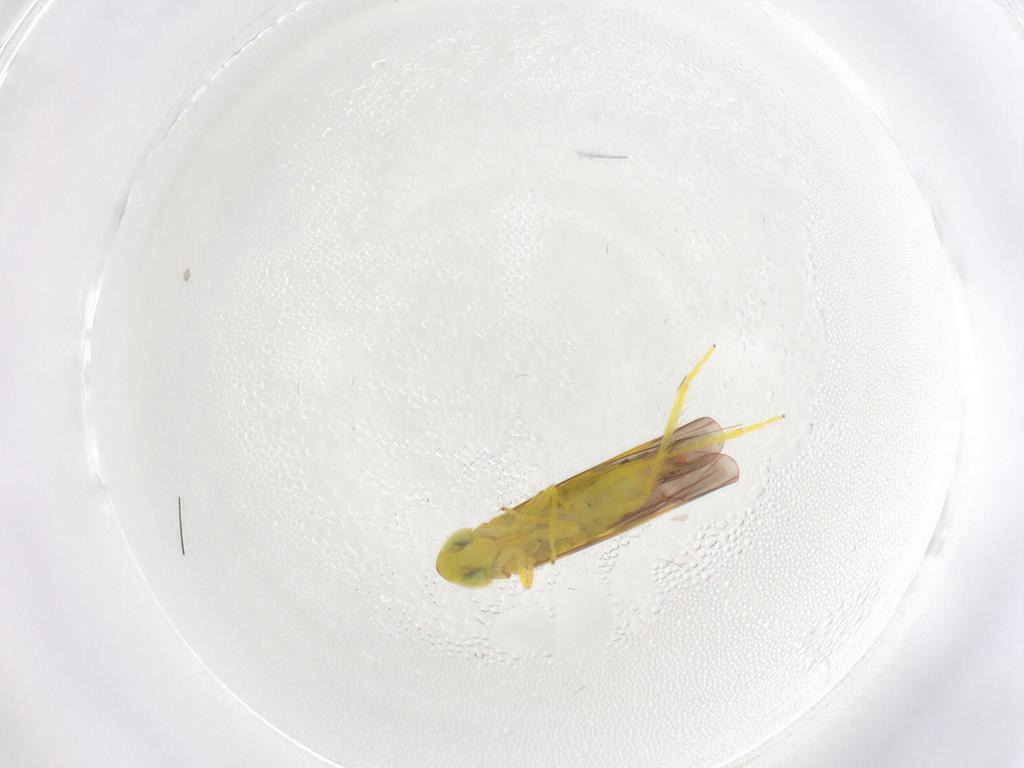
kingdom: Animalia
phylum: Arthropoda
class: Insecta
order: Hemiptera
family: Cicadellidae
